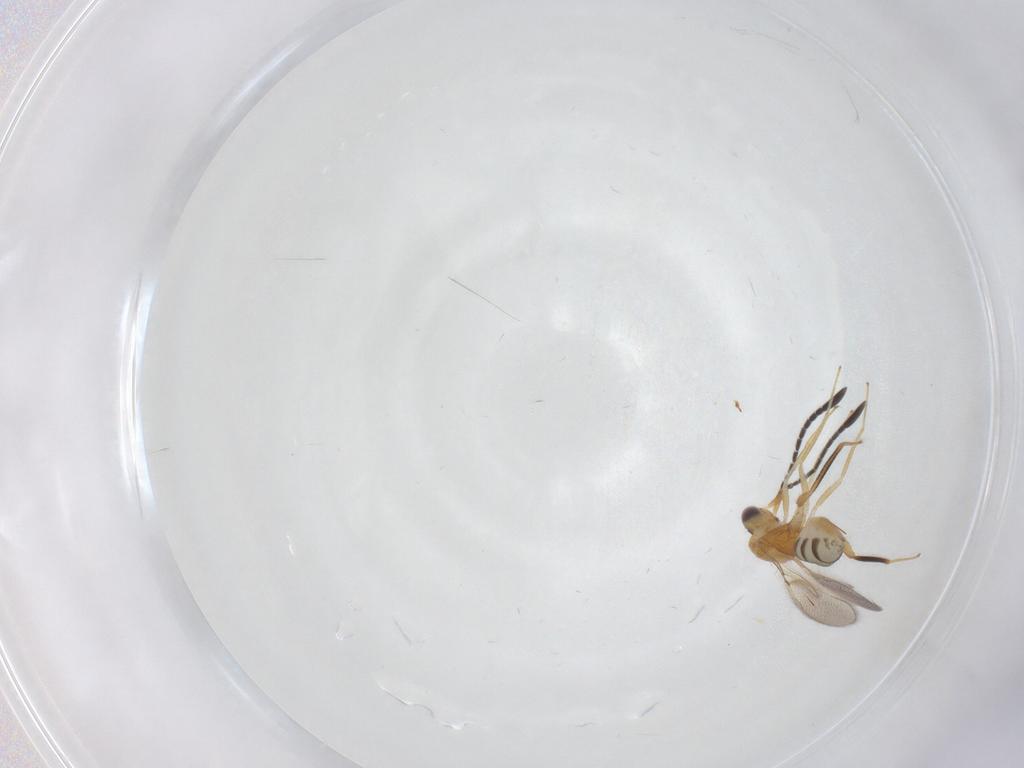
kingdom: Animalia
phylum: Arthropoda
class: Insecta
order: Hymenoptera
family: Mymaridae
